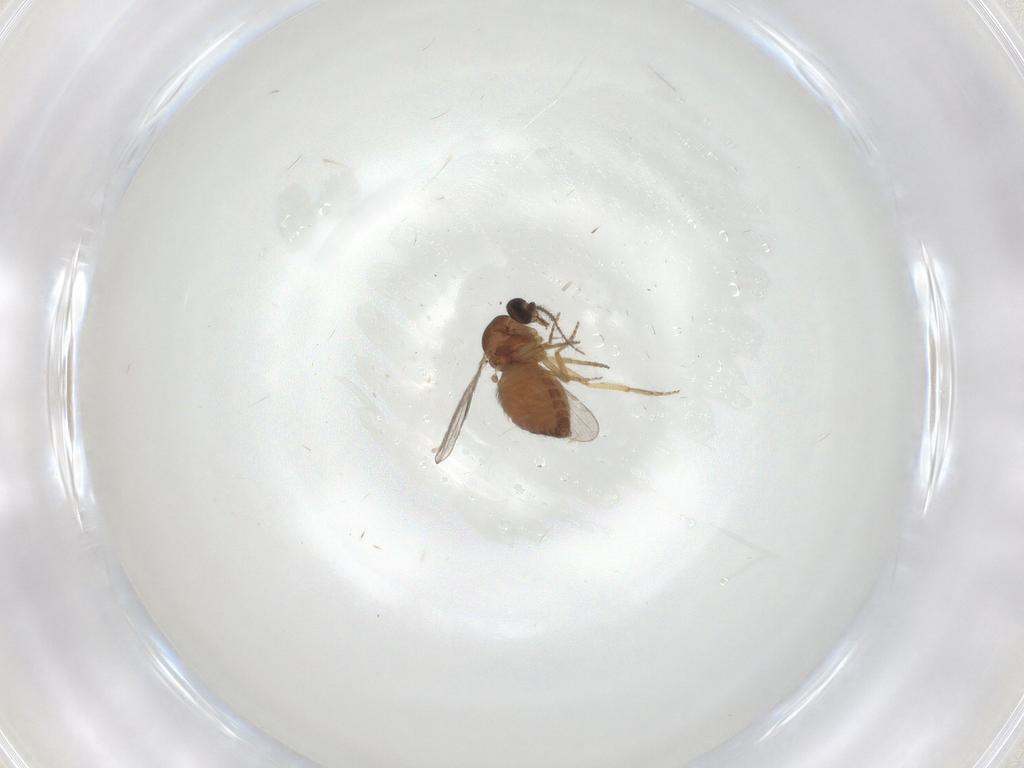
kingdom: Animalia
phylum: Arthropoda
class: Insecta
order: Diptera
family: Ceratopogonidae
